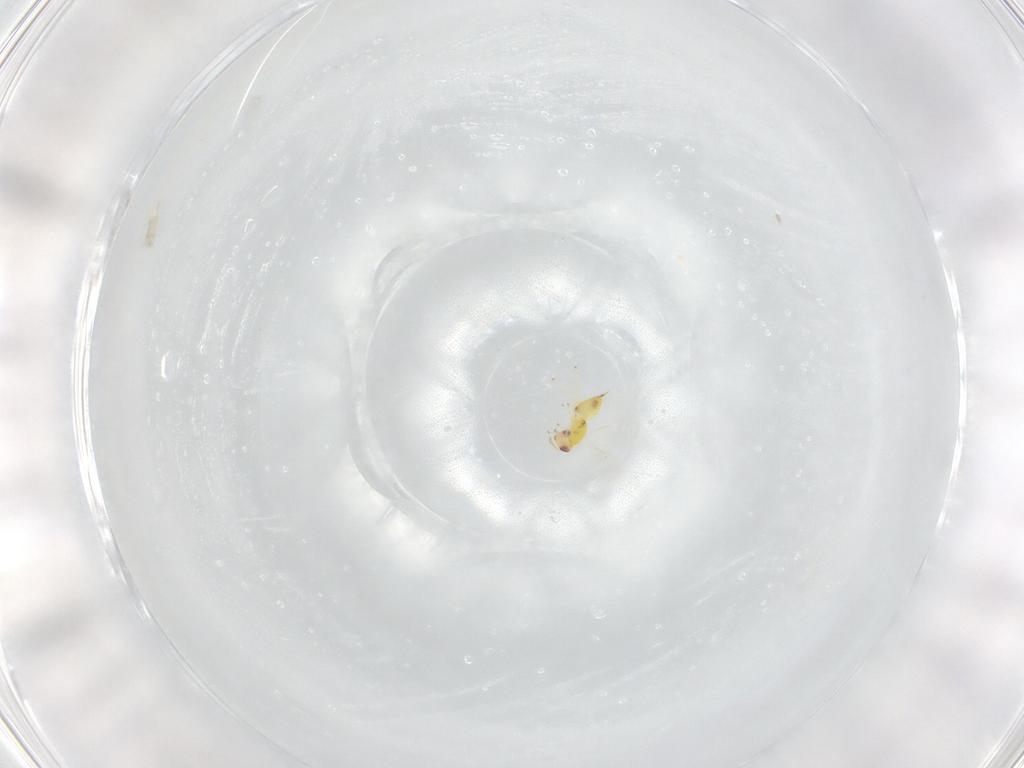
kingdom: Animalia
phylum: Arthropoda
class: Insecta
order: Hymenoptera
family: Eulophidae
